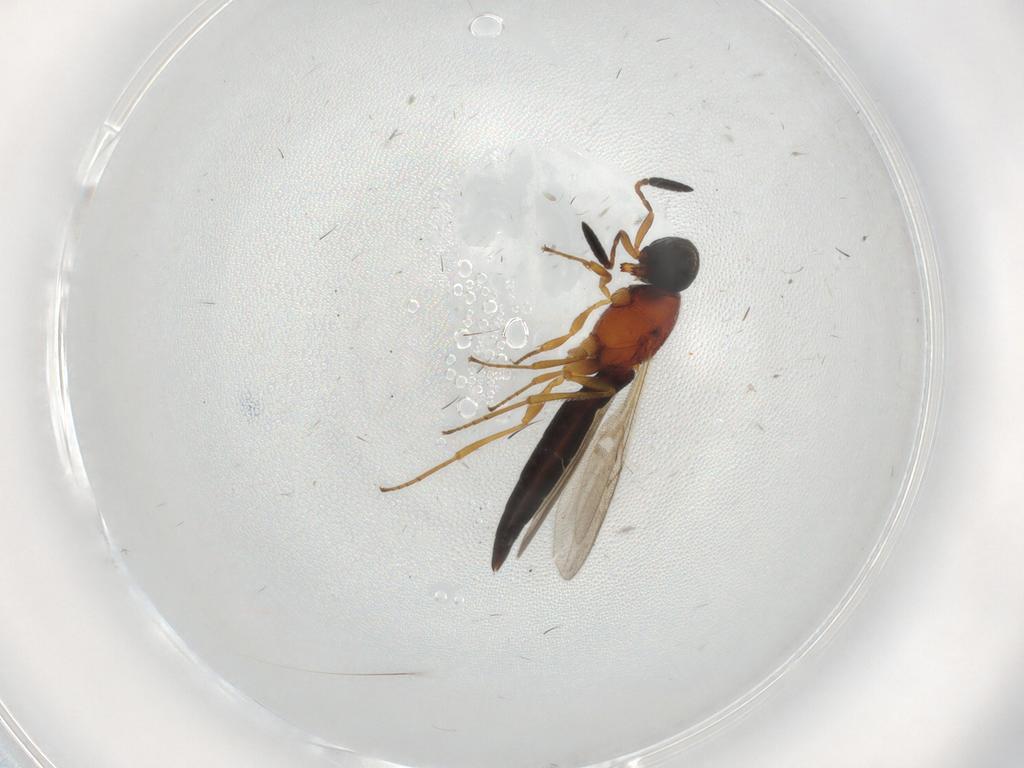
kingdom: Animalia
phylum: Arthropoda
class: Insecta
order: Hymenoptera
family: Scelionidae
